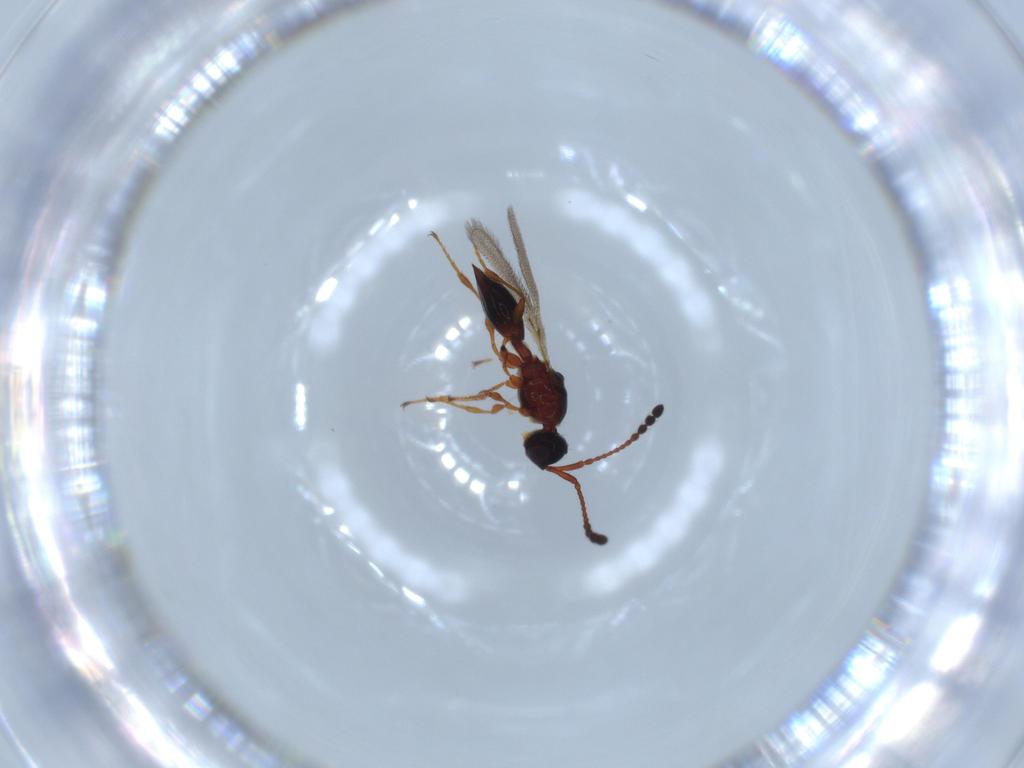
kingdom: Animalia
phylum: Arthropoda
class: Insecta
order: Hymenoptera
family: Diapriidae
